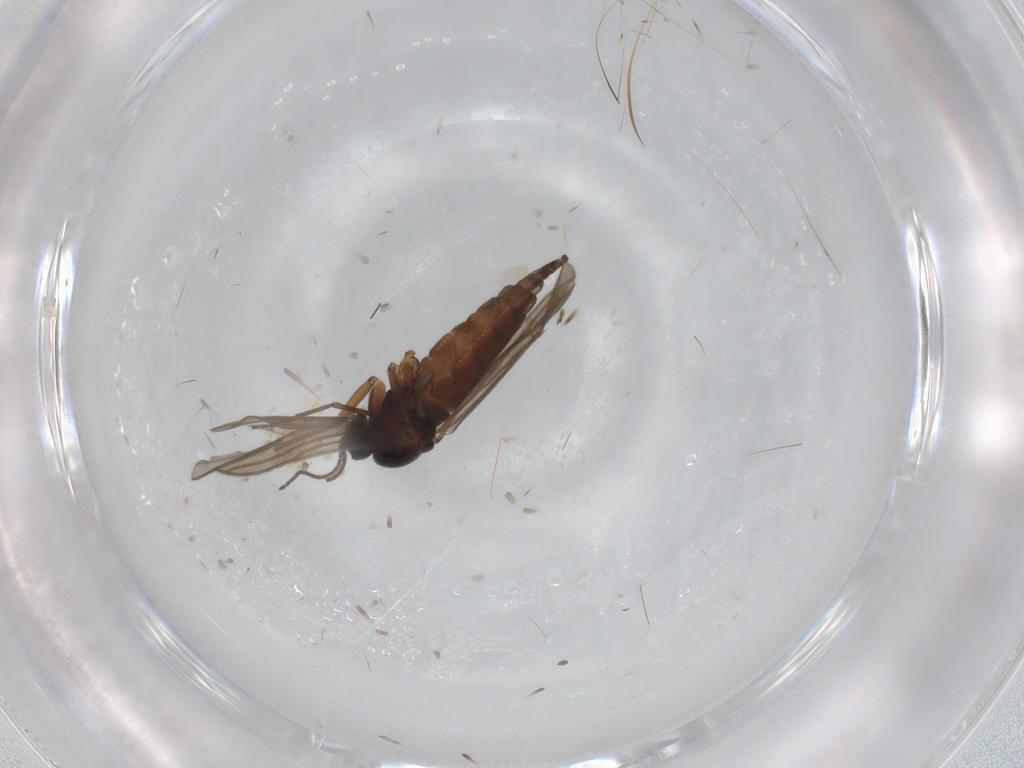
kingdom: Animalia
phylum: Arthropoda
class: Insecta
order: Diptera
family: Sciaridae
